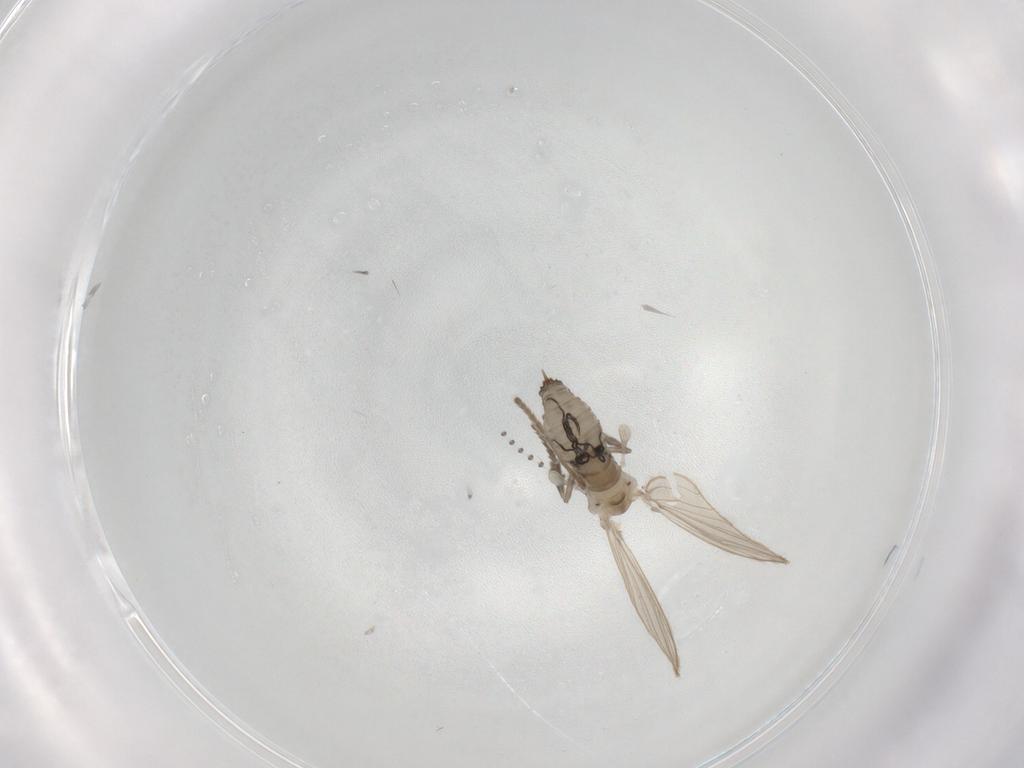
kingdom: Animalia
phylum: Arthropoda
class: Insecta
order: Diptera
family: Psychodidae
